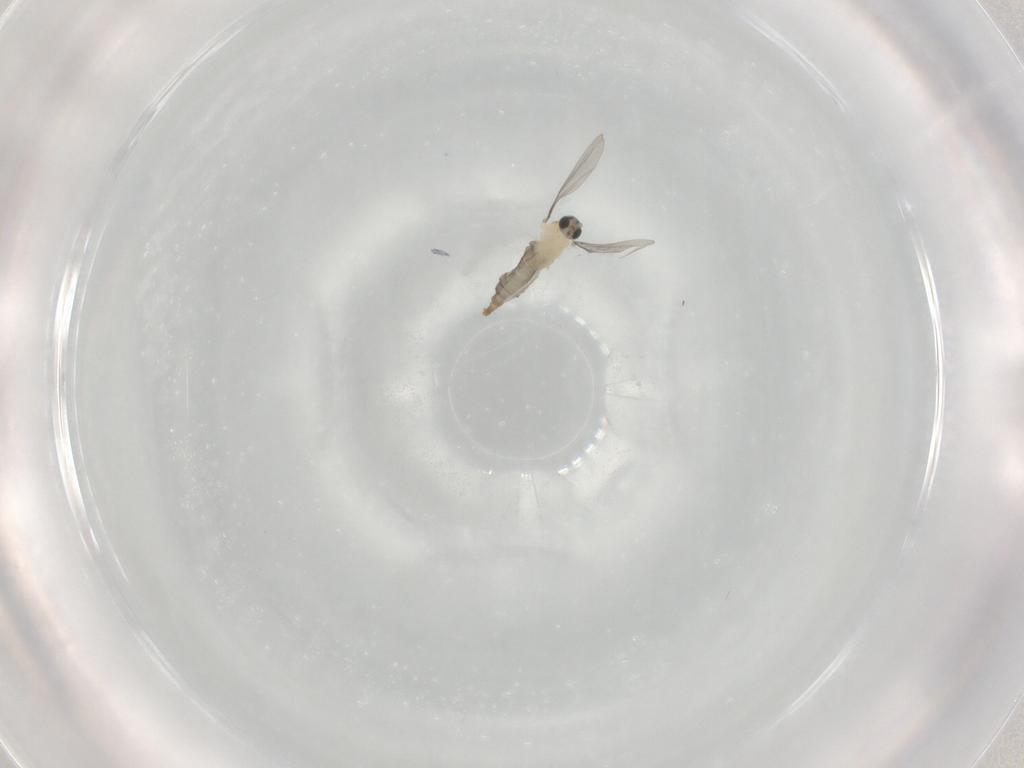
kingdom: Animalia
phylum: Arthropoda
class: Insecta
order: Diptera
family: Cecidomyiidae
